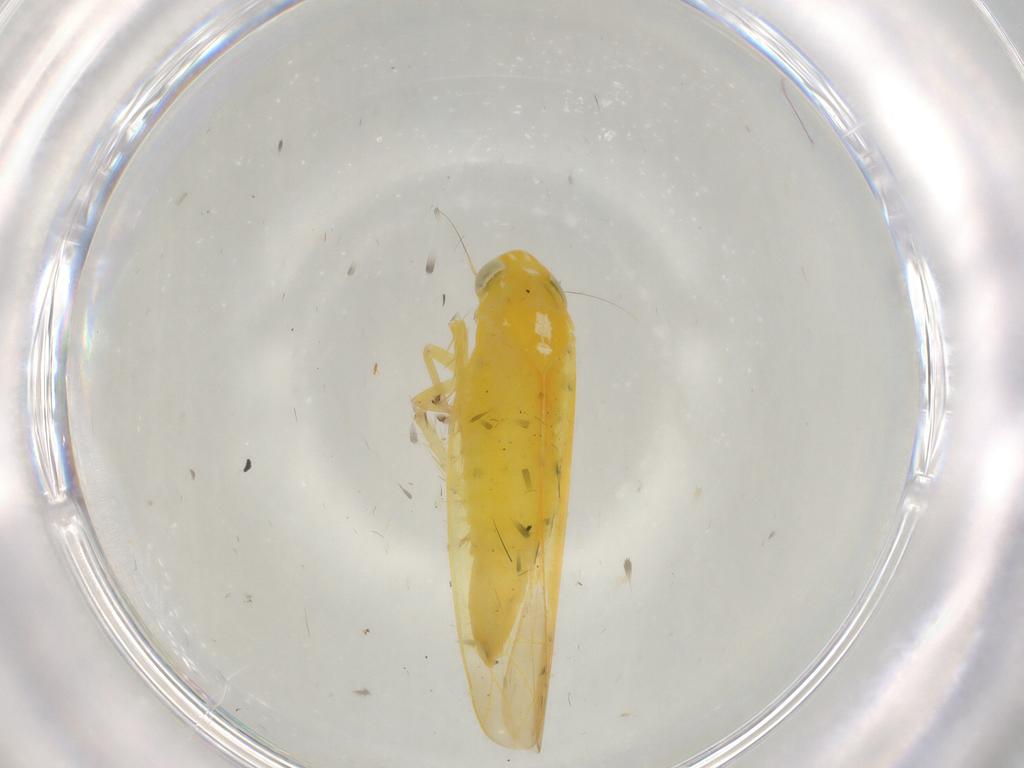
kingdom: Animalia
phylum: Arthropoda
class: Insecta
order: Hemiptera
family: Cicadellidae
